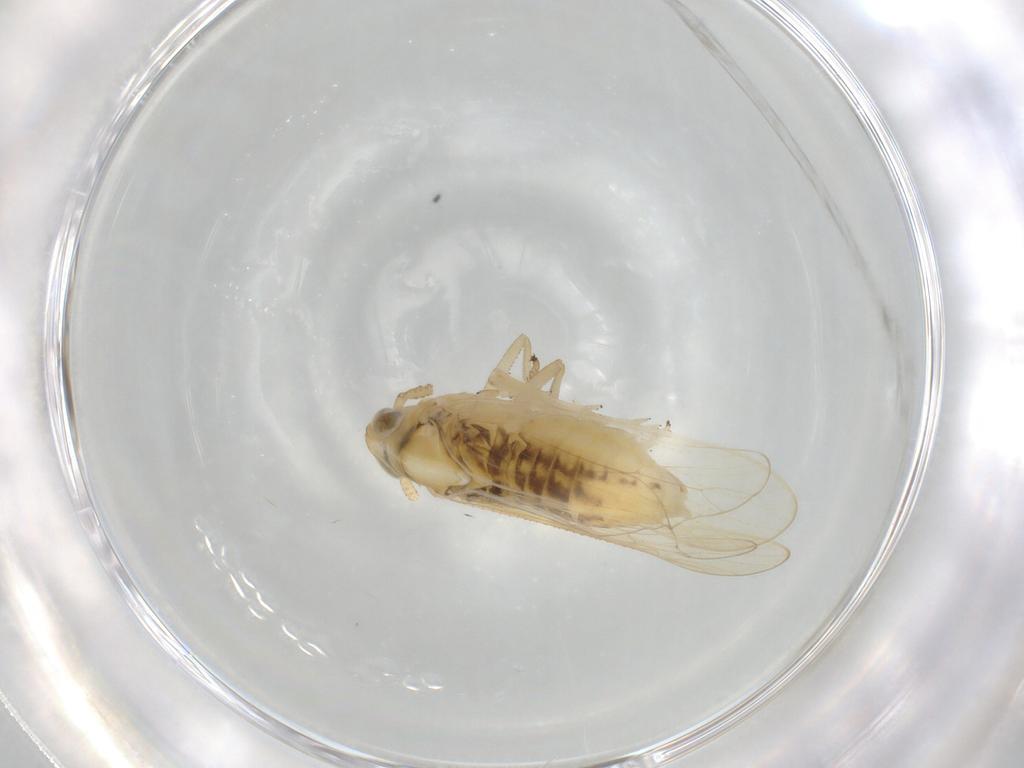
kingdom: Animalia
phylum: Arthropoda
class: Insecta
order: Hemiptera
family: Delphacidae
